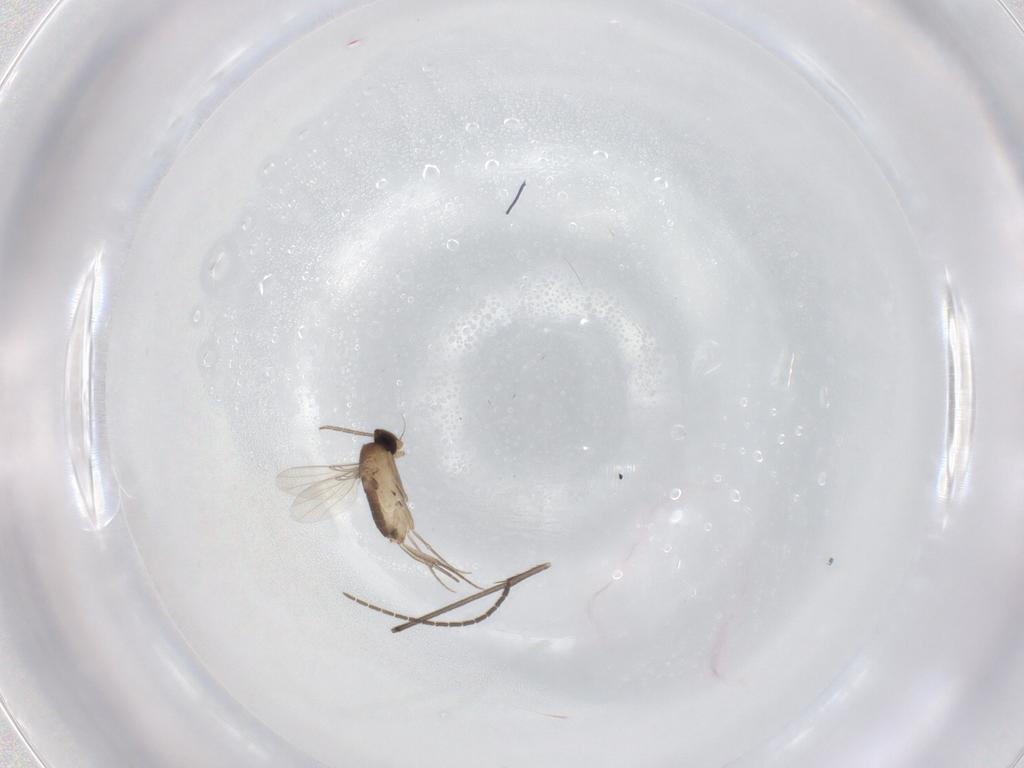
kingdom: Animalia
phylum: Arthropoda
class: Insecta
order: Diptera
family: Phoridae
